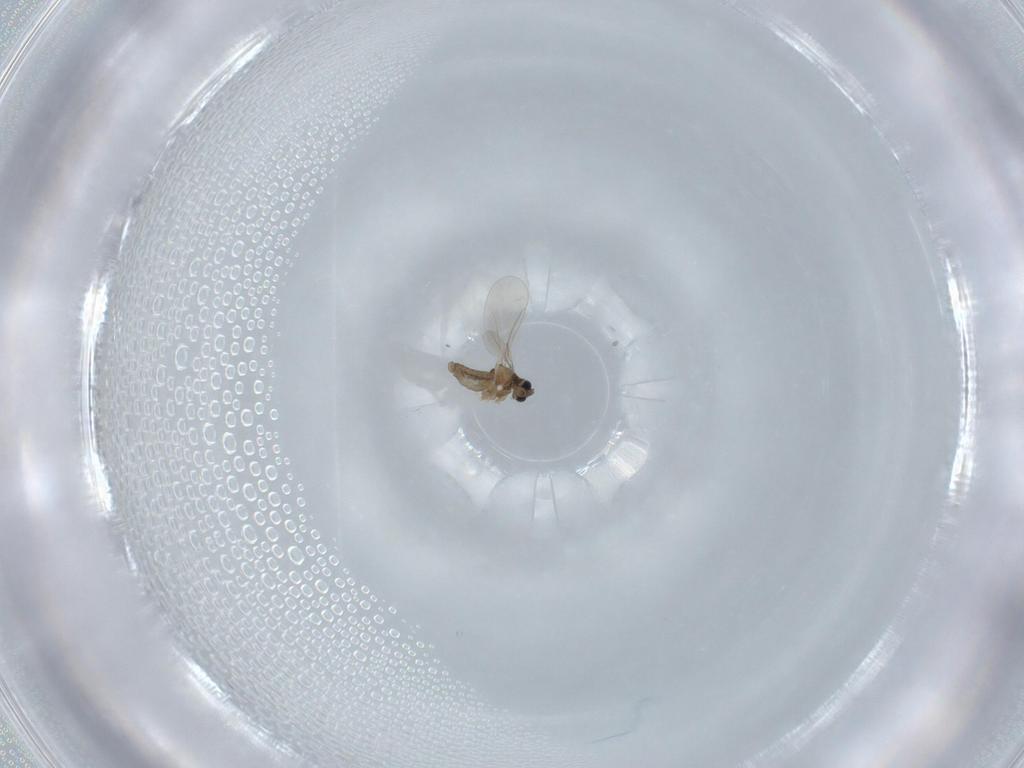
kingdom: Animalia
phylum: Arthropoda
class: Insecta
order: Diptera
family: Cecidomyiidae
